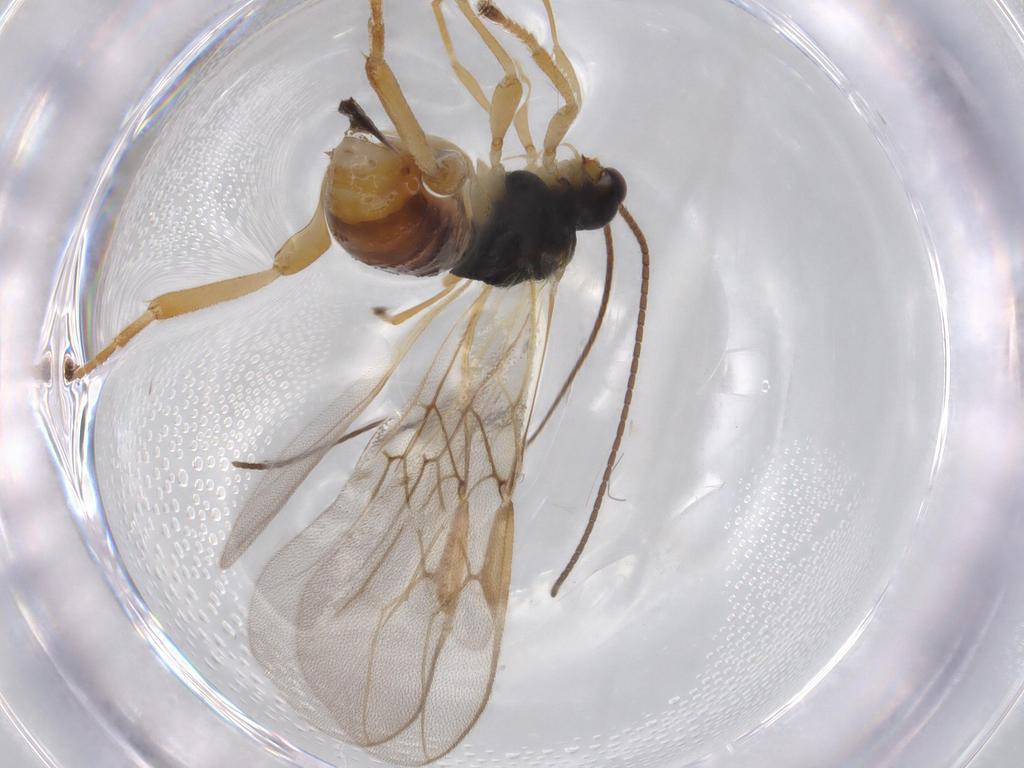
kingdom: Animalia
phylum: Arthropoda
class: Insecta
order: Hymenoptera
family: Braconidae
